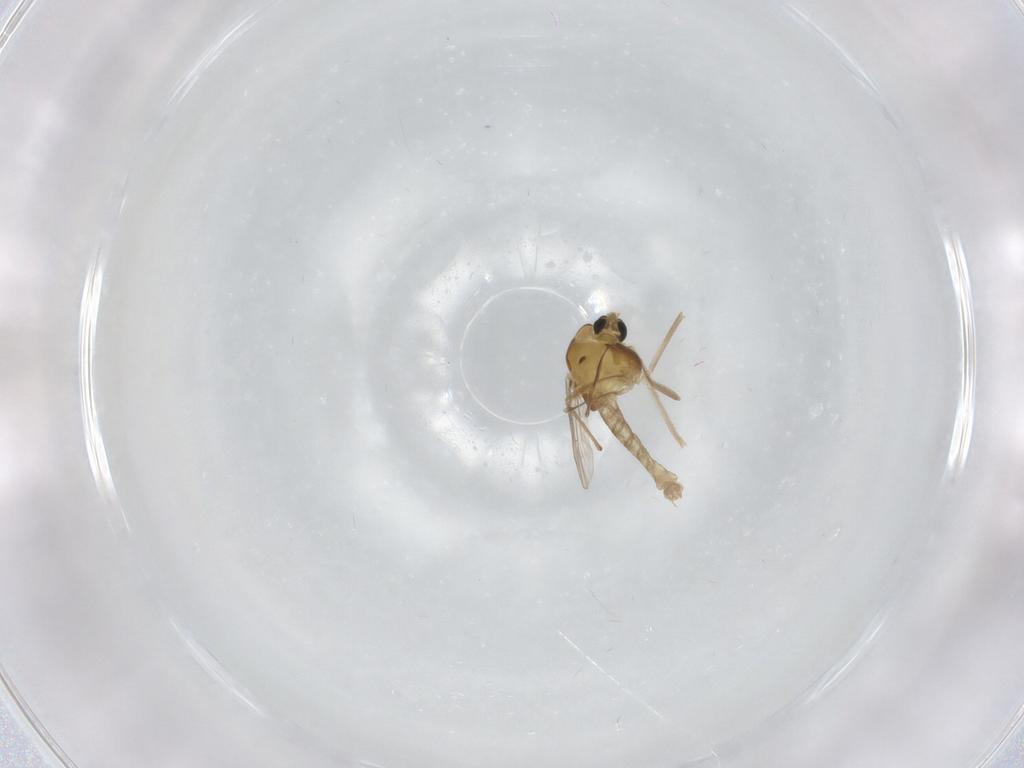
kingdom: Animalia
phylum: Arthropoda
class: Insecta
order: Diptera
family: Chironomidae
